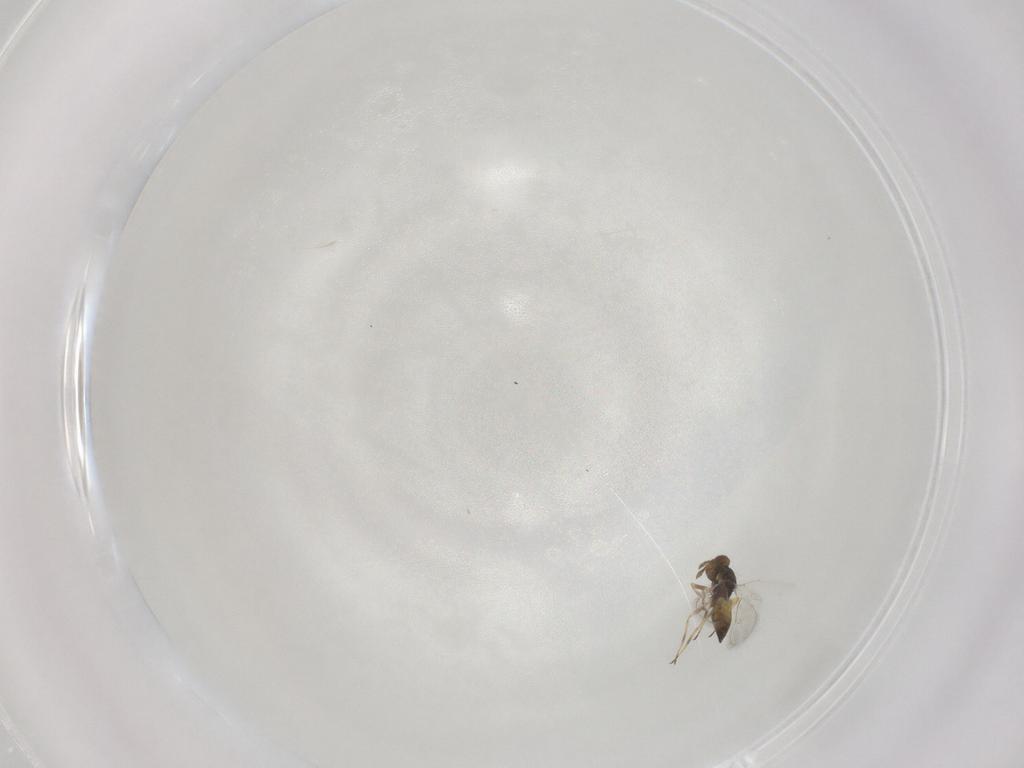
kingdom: Animalia
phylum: Arthropoda
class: Insecta
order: Hymenoptera
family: Eulophidae
